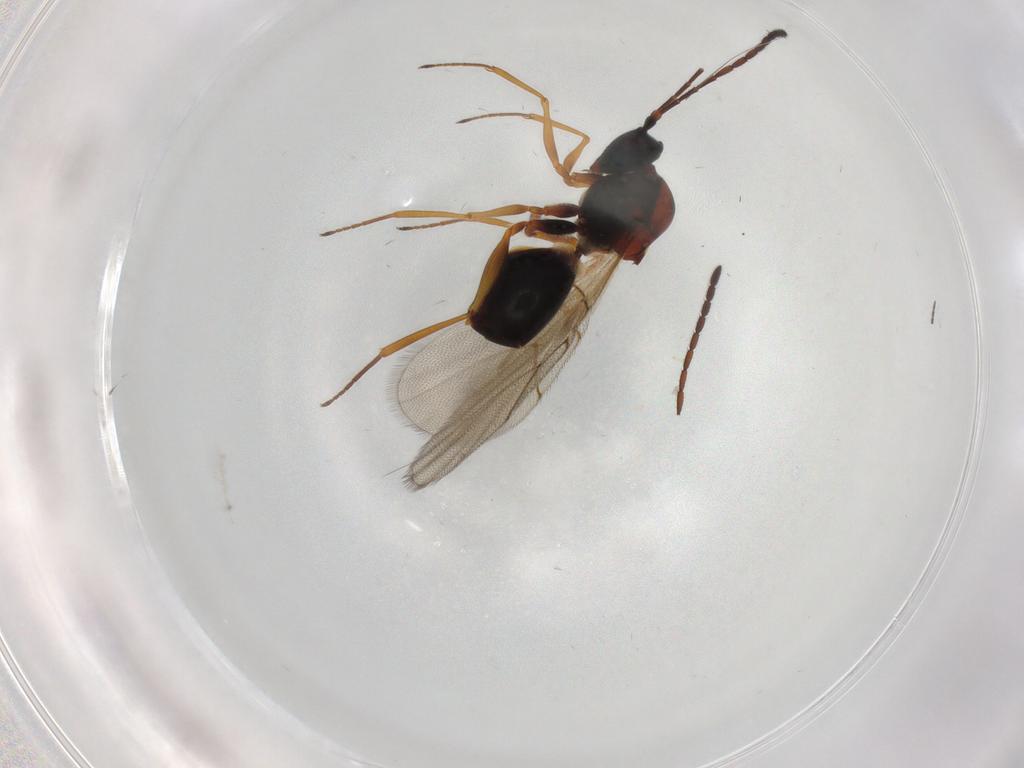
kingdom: Animalia
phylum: Arthropoda
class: Insecta
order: Hymenoptera
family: Figitidae
